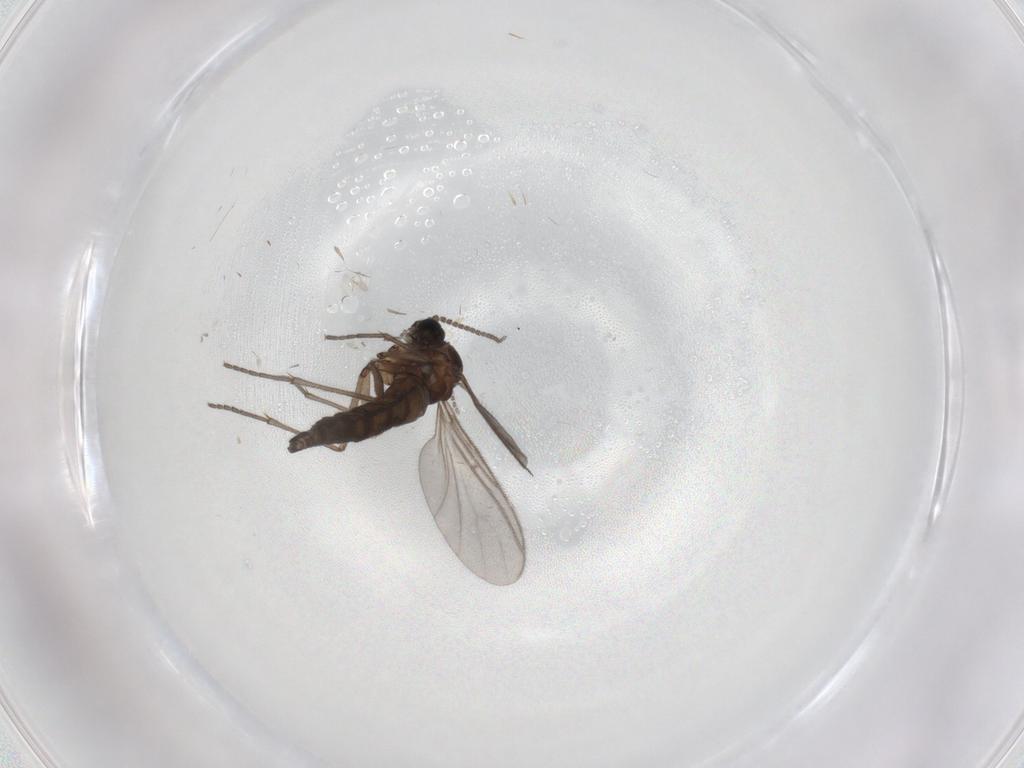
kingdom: Animalia
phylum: Arthropoda
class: Insecta
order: Diptera
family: Sciaridae
